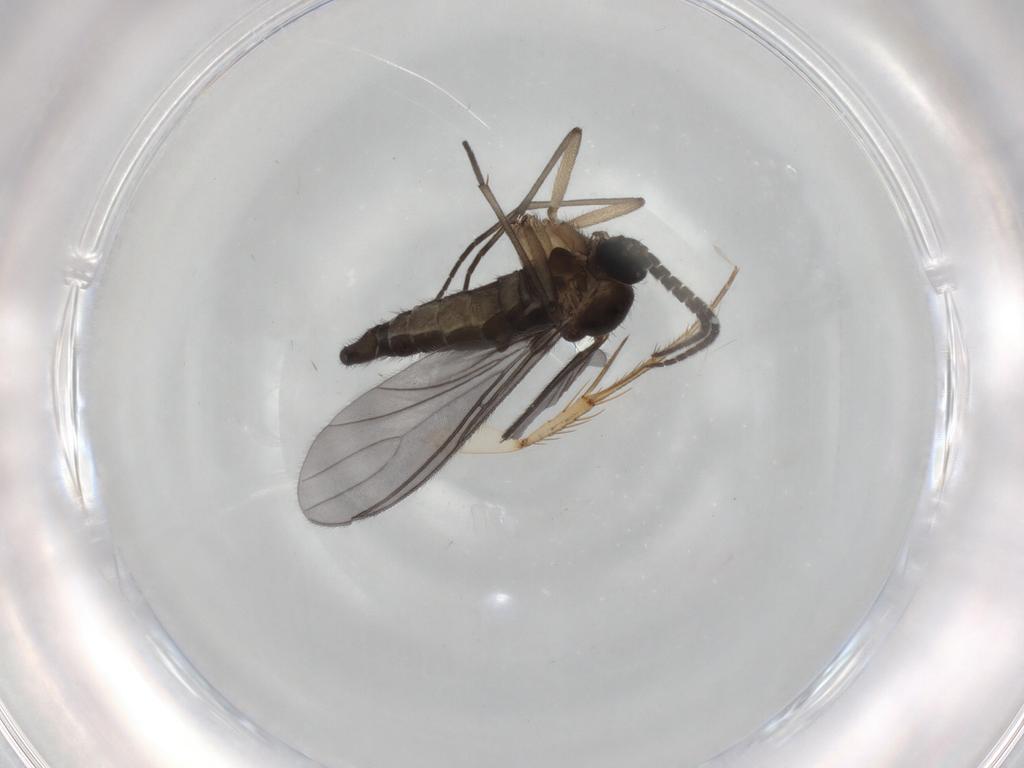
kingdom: Animalia
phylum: Arthropoda
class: Insecta
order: Diptera
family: Sciaridae
